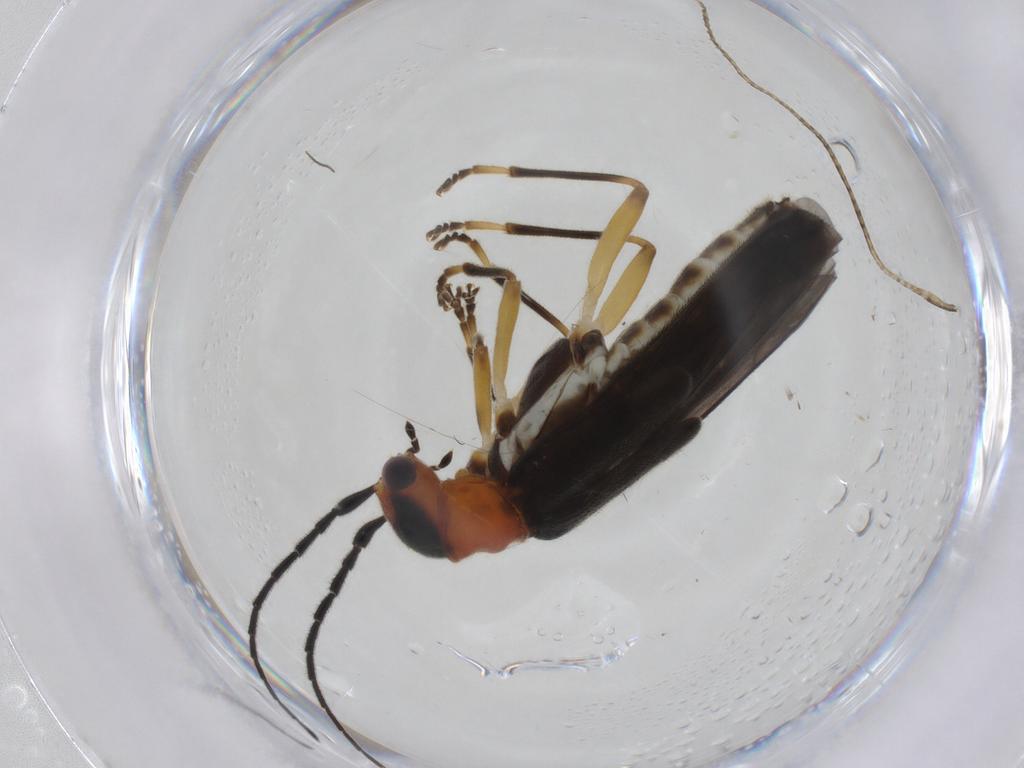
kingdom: Animalia
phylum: Arthropoda
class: Insecta
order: Coleoptera
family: Cantharidae
